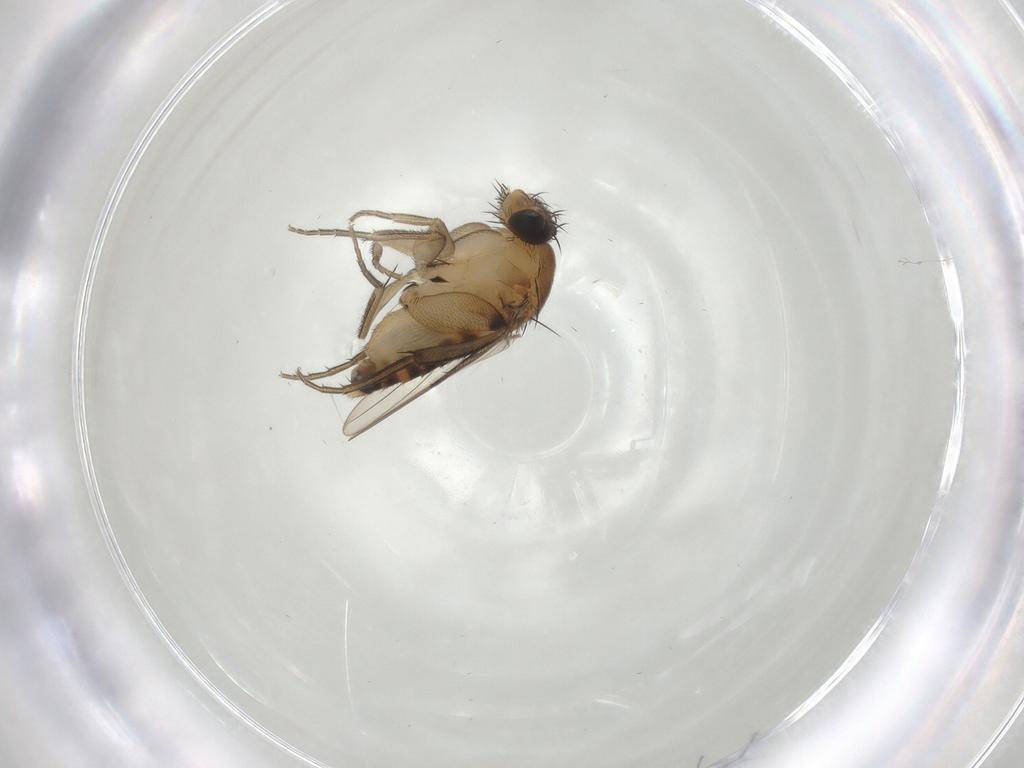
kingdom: Animalia
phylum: Arthropoda
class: Insecta
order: Diptera
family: Phoridae
